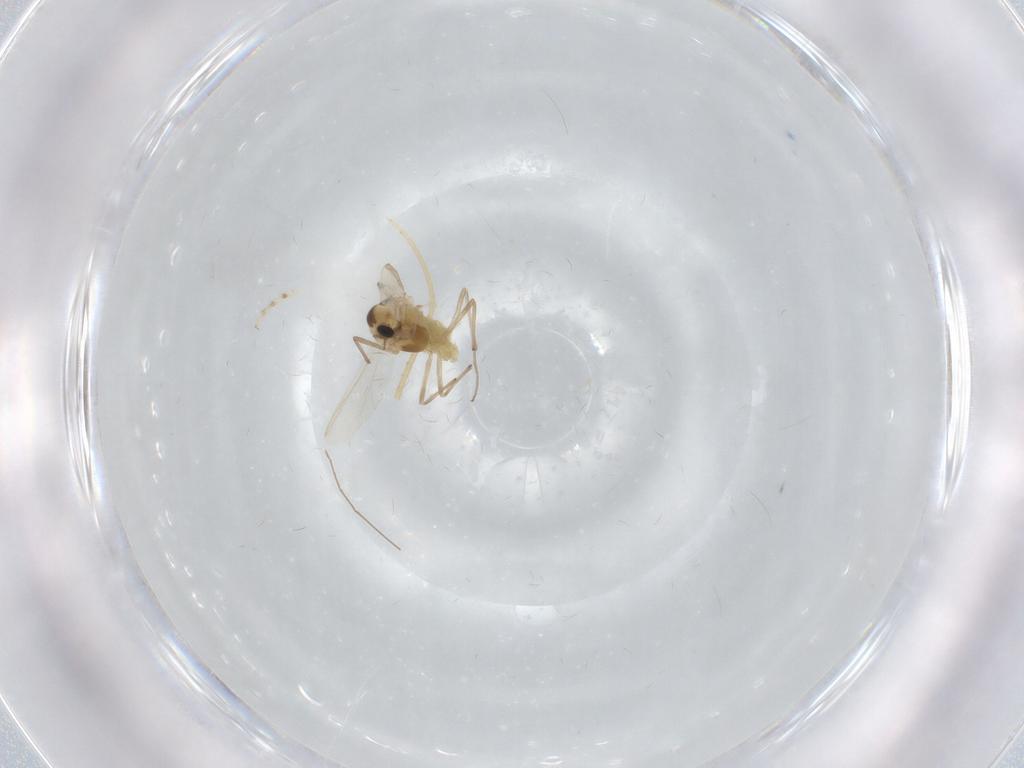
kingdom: Animalia
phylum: Arthropoda
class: Insecta
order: Diptera
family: Chironomidae
